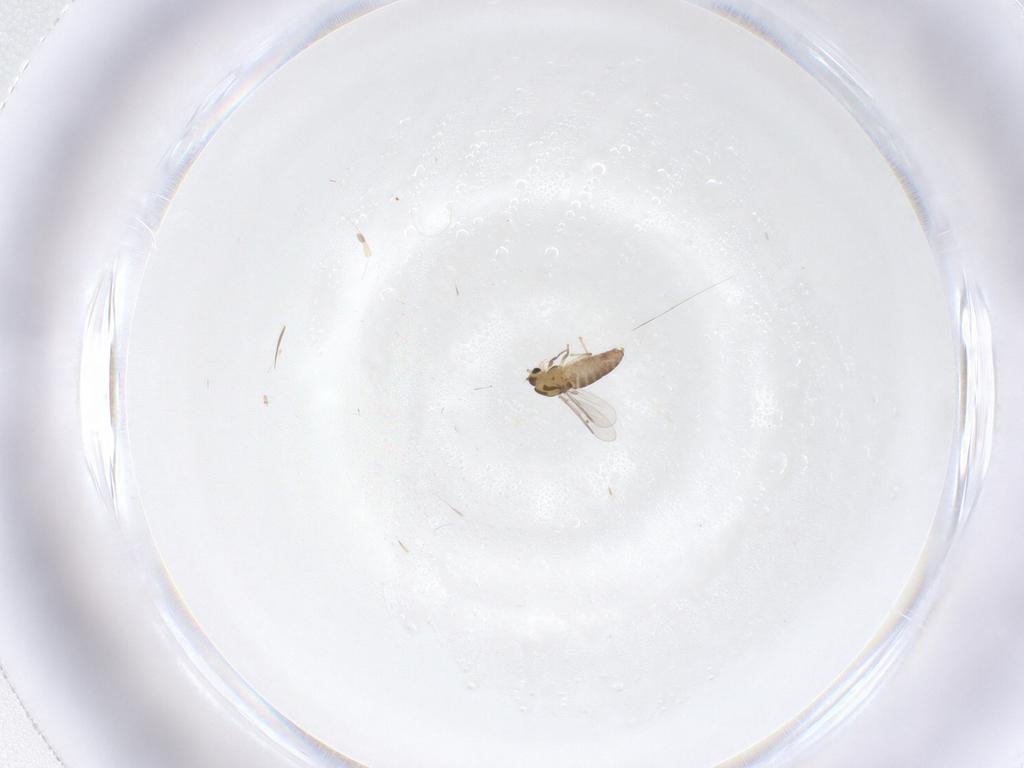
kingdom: Animalia
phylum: Arthropoda
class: Insecta
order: Diptera
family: Chironomidae
